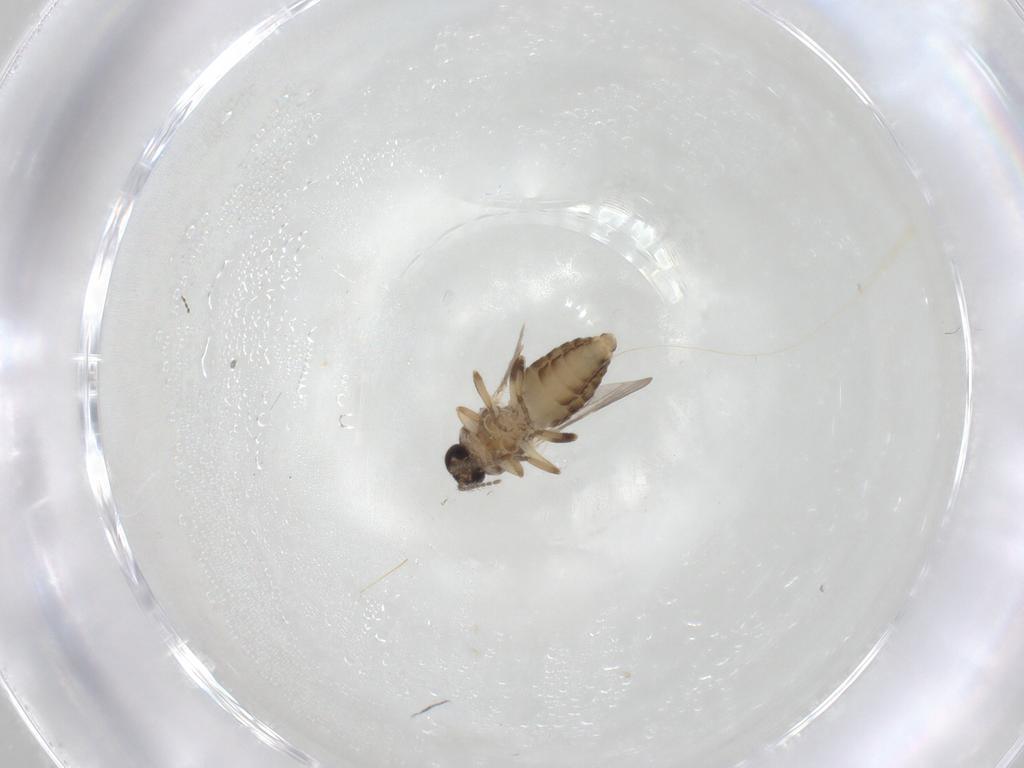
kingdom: Animalia
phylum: Arthropoda
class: Insecta
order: Diptera
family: Ceratopogonidae
